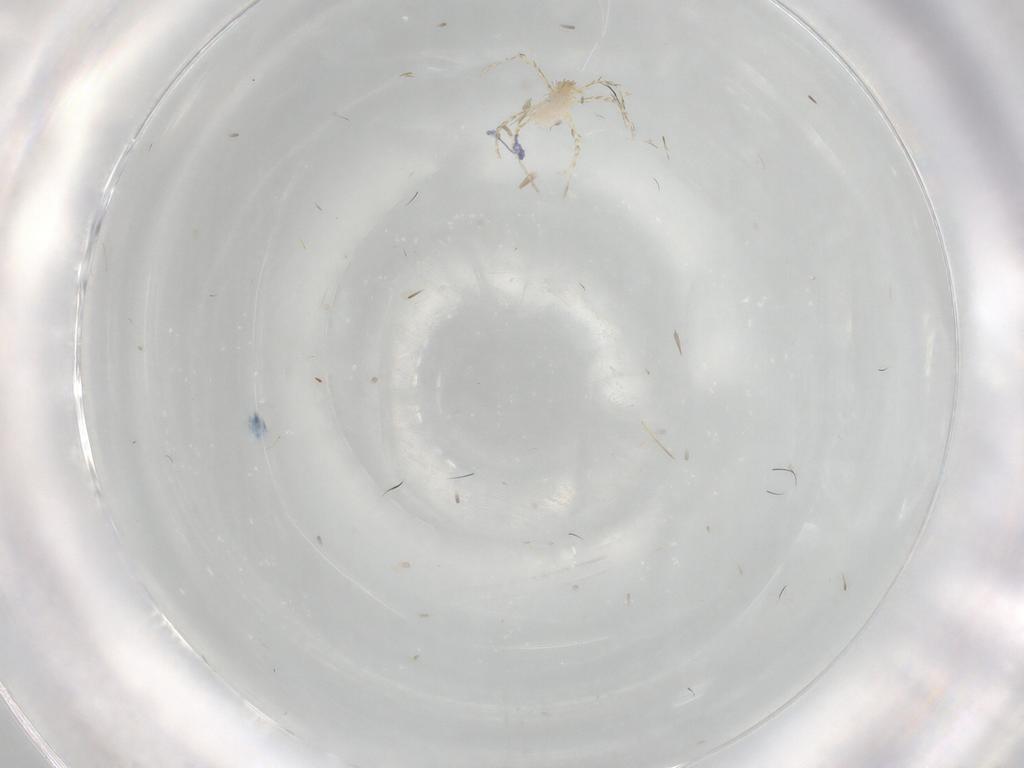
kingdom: Animalia
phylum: Arthropoda
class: Arachnida
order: Trombidiformes
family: Erythraeidae
